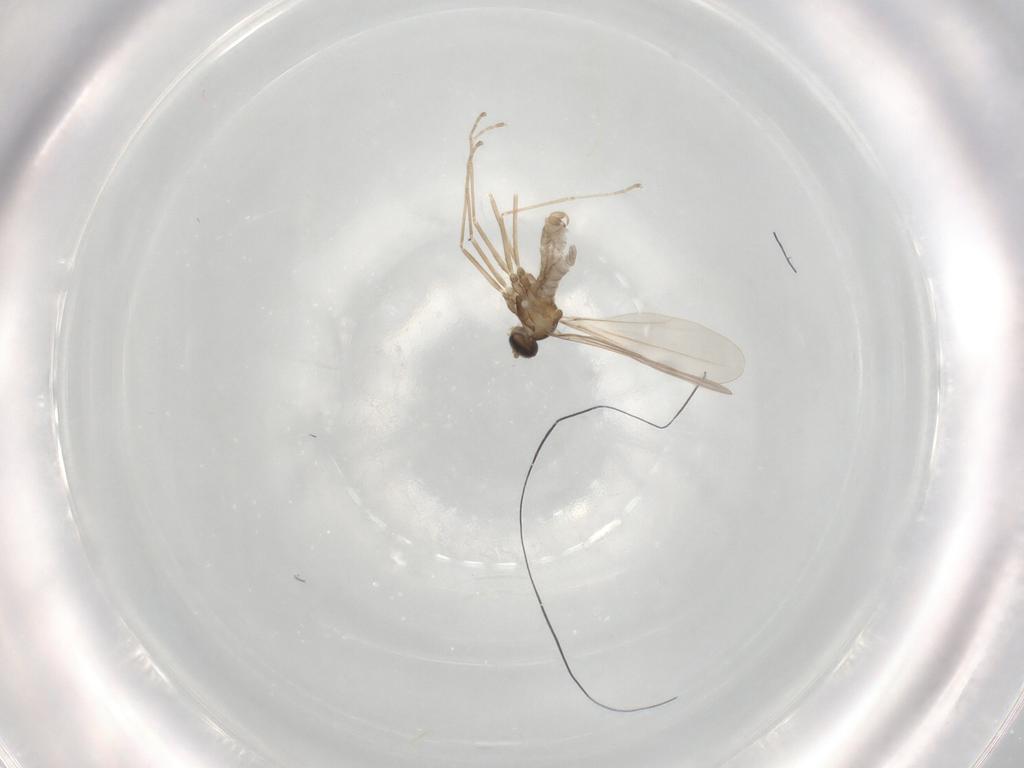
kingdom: Animalia
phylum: Arthropoda
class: Insecta
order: Diptera
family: Cecidomyiidae
